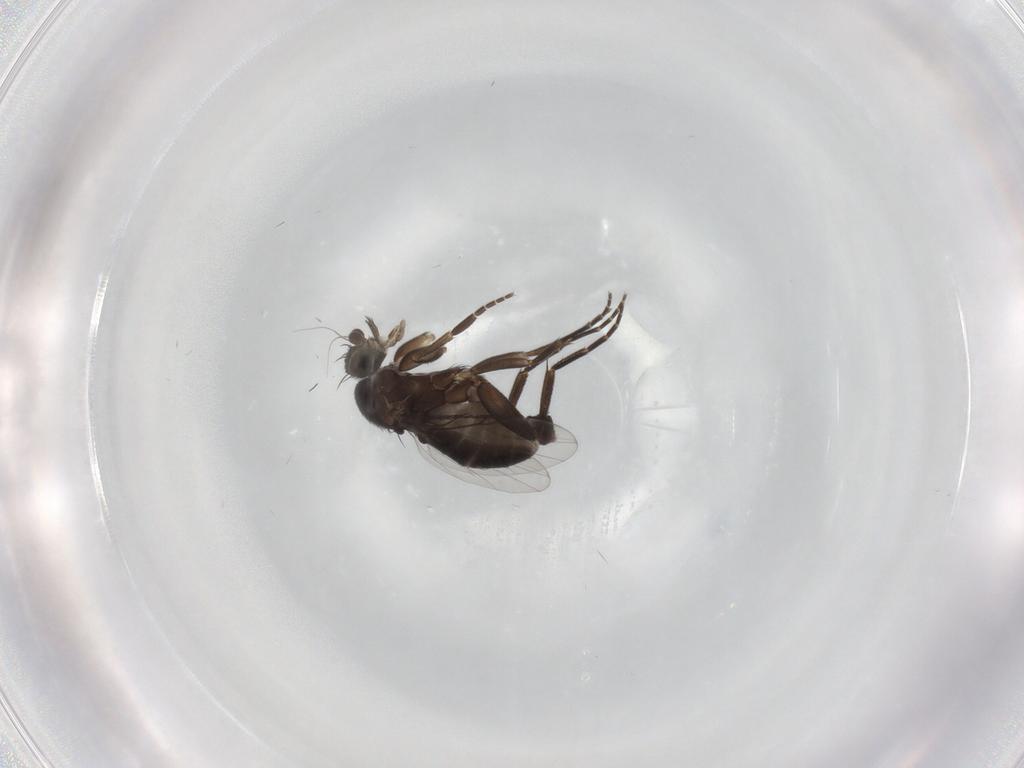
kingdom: Animalia
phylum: Arthropoda
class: Insecta
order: Diptera
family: Phoridae
